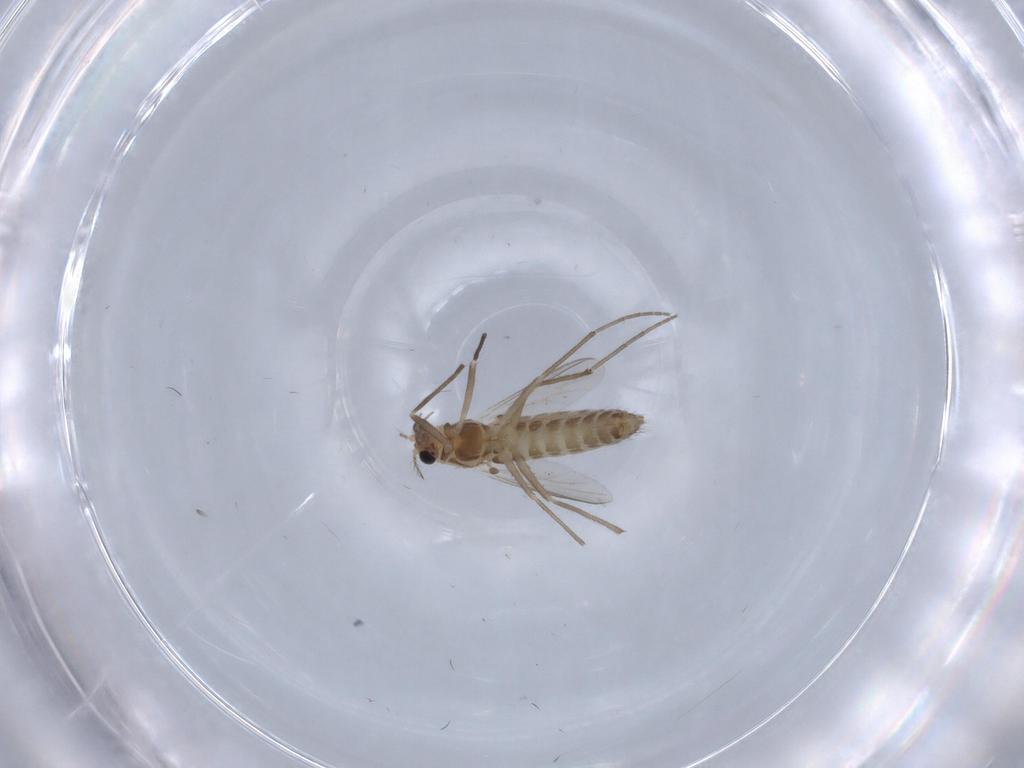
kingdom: Animalia
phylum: Arthropoda
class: Insecta
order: Diptera
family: Chironomidae
